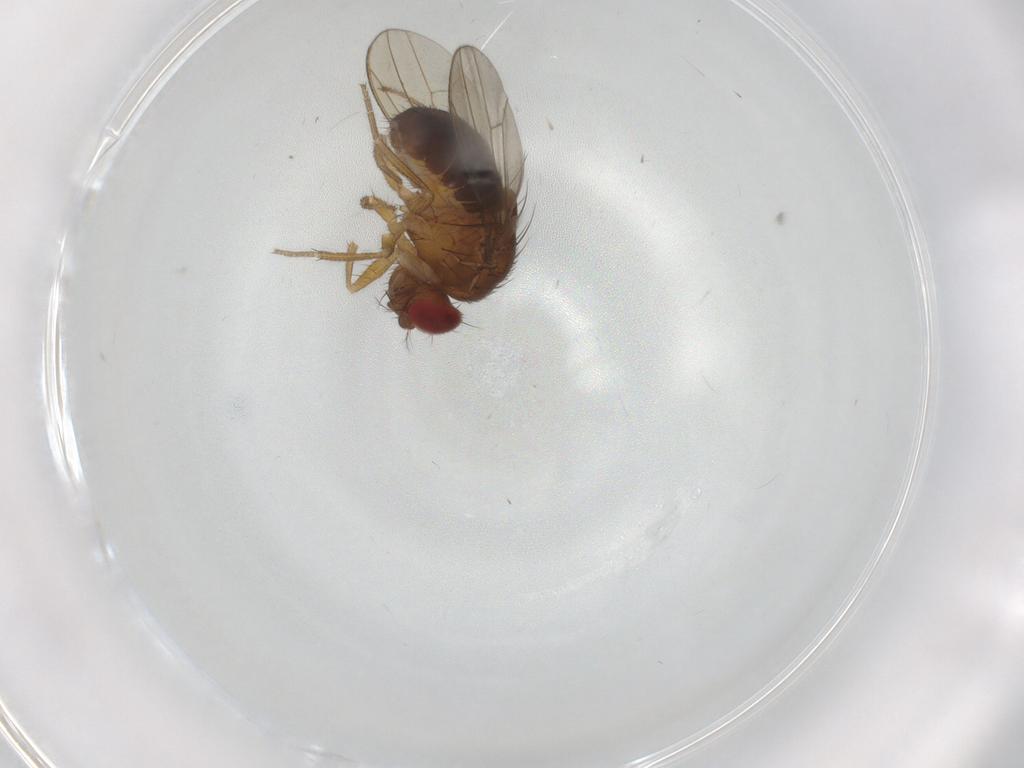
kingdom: Animalia
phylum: Arthropoda
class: Insecta
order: Diptera
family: Drosophilidae
